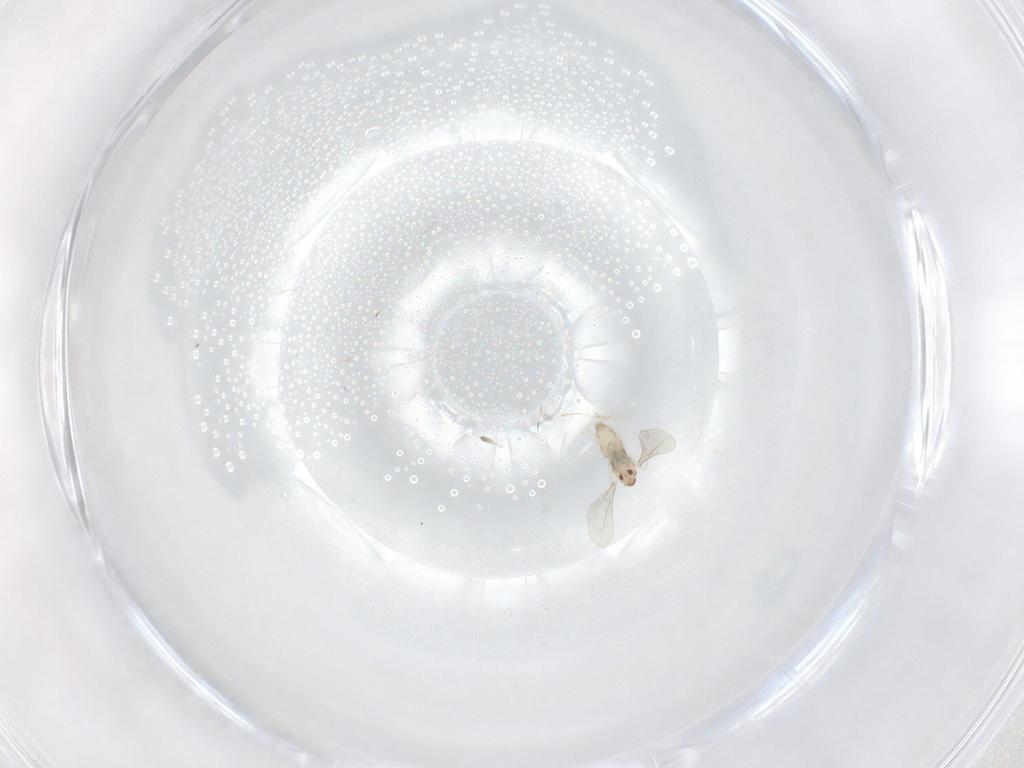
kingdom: Animalia
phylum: Arthropoda
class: Insecta
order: Diptera
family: Cecidomyiidae
